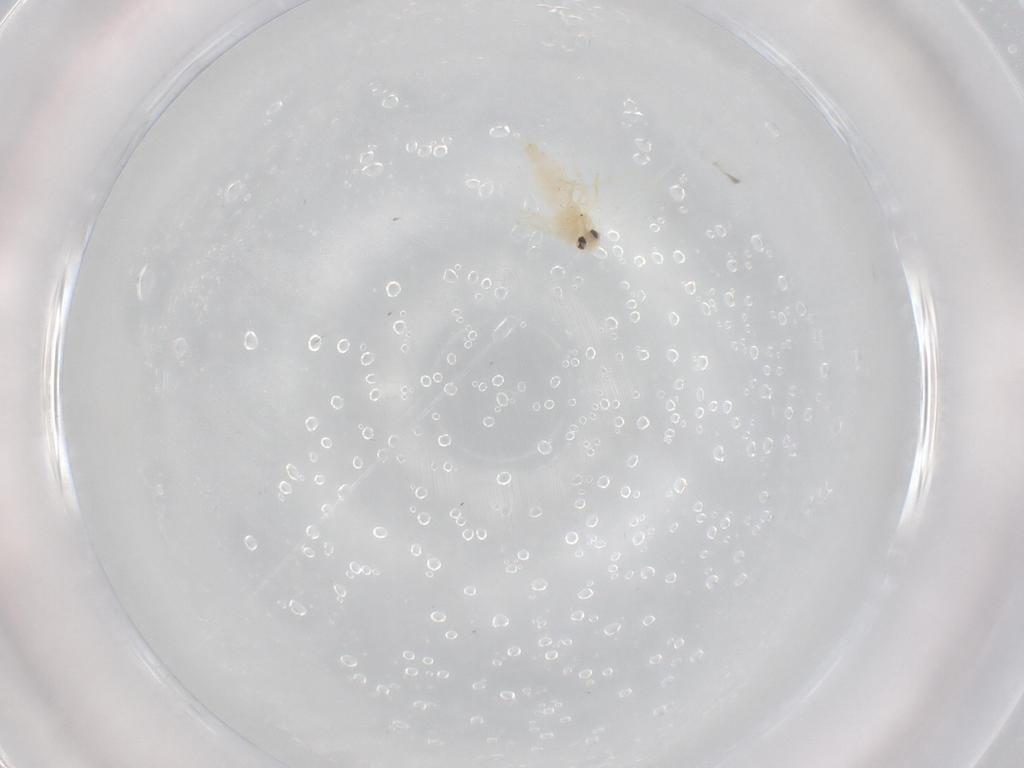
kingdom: Animalia
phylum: Arthropoda
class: Insecta
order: Hemiptera
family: Aleyrodidae
